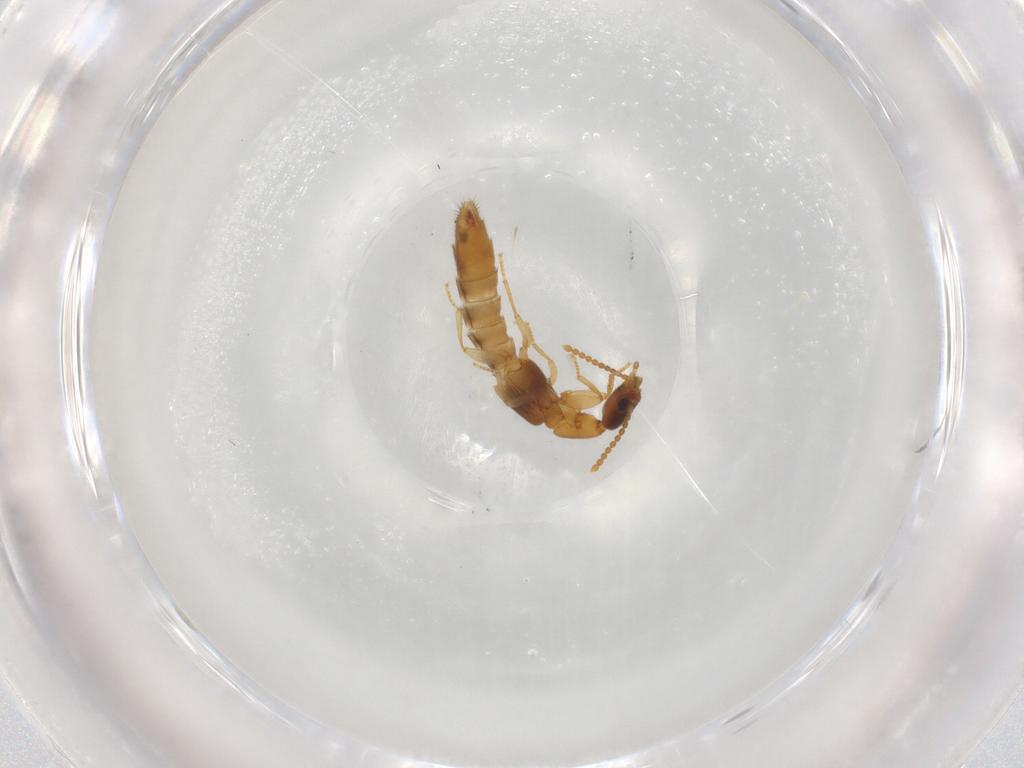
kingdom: Animalia
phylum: Arthropoda
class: Insecta
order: Coleoptera
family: Staphylinidae
